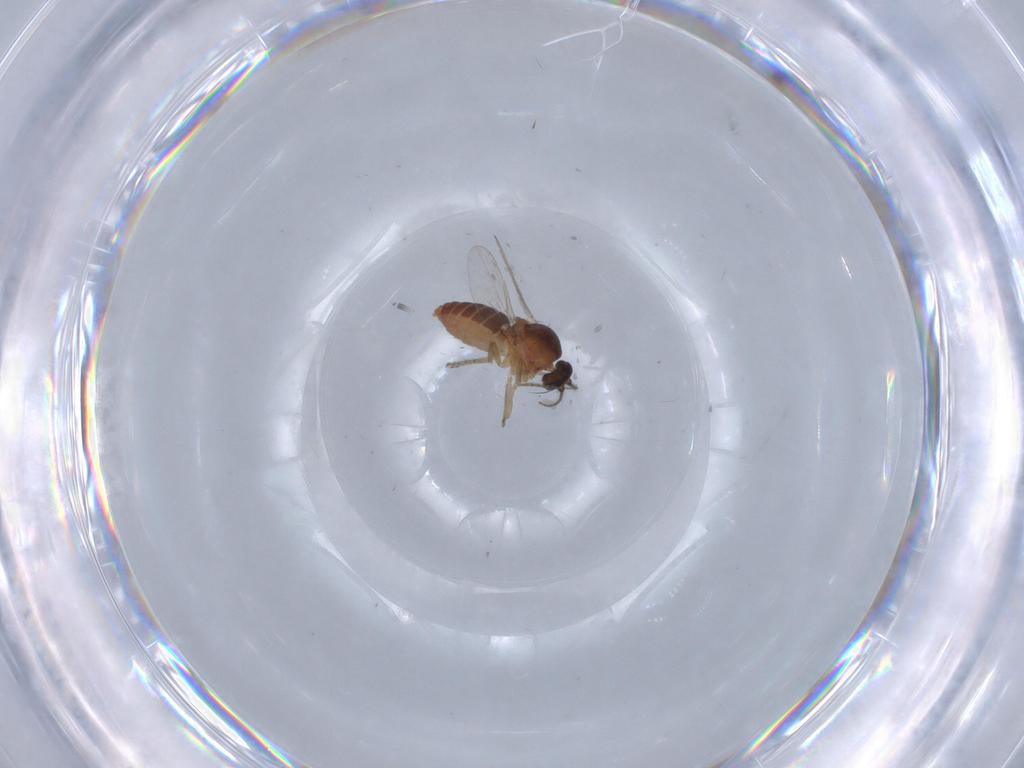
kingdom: Animalia
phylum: Arthropoda
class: Insecta
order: Diptera
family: Ceratopogonidae
